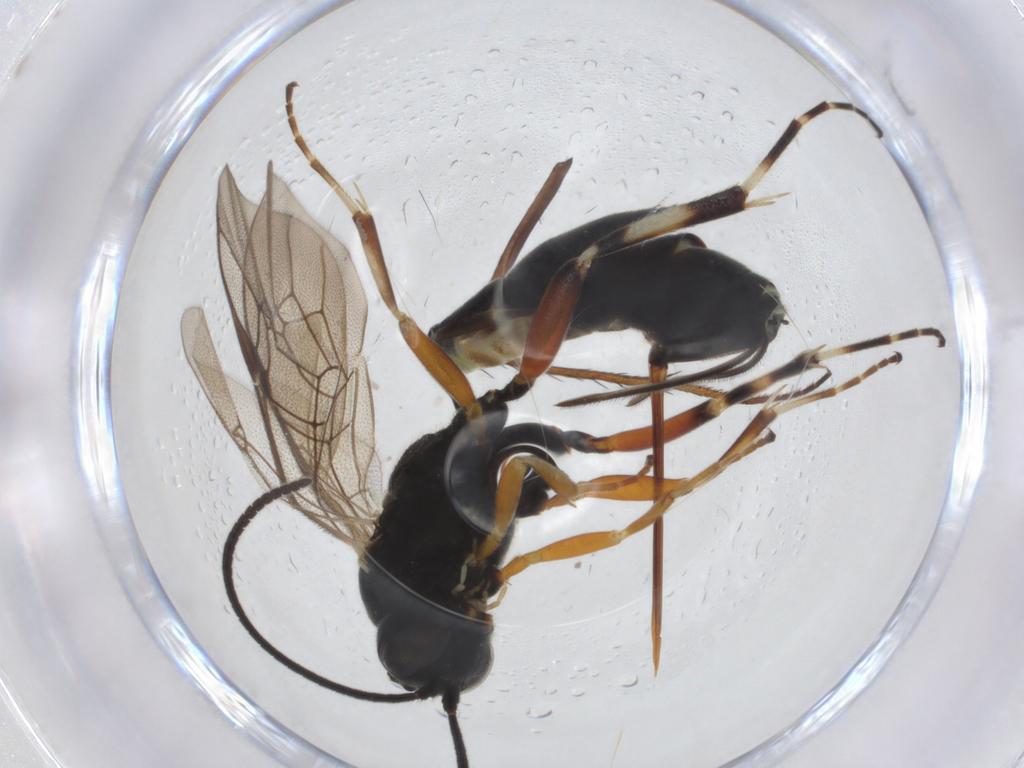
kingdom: Animalia
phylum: Arthropoda
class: Insecta
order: Hymenoptera
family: Ichneumonidae
